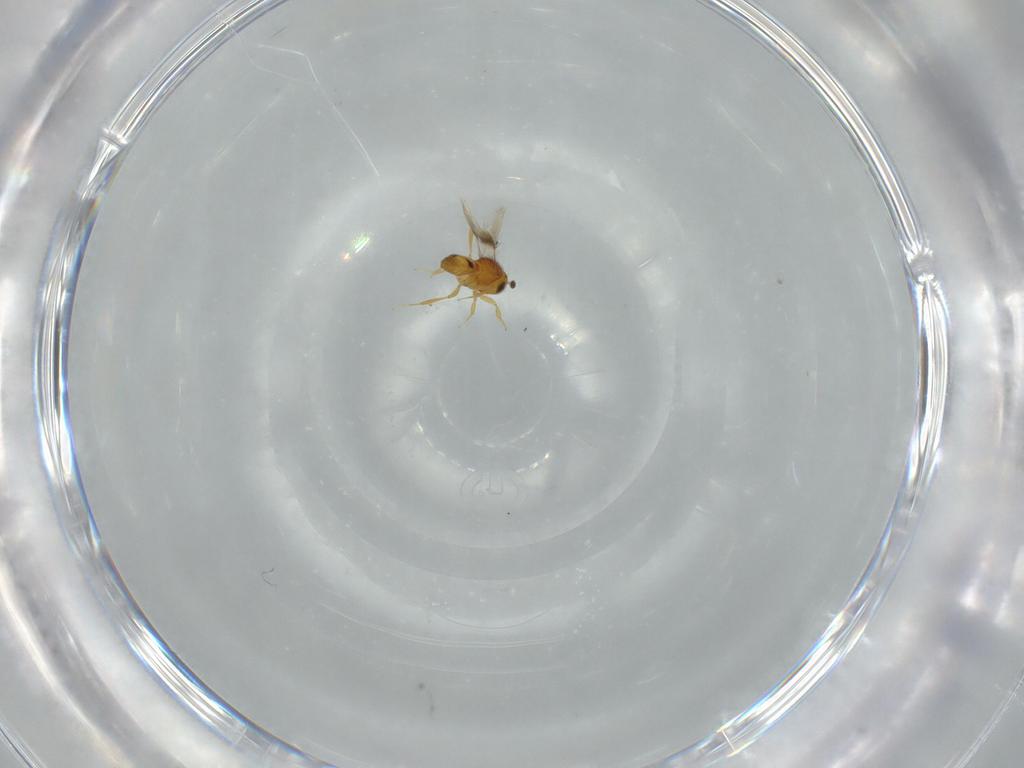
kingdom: Animalia
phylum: Arthropoda
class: Insecta
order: Hymenoptera
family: Scelionidae
